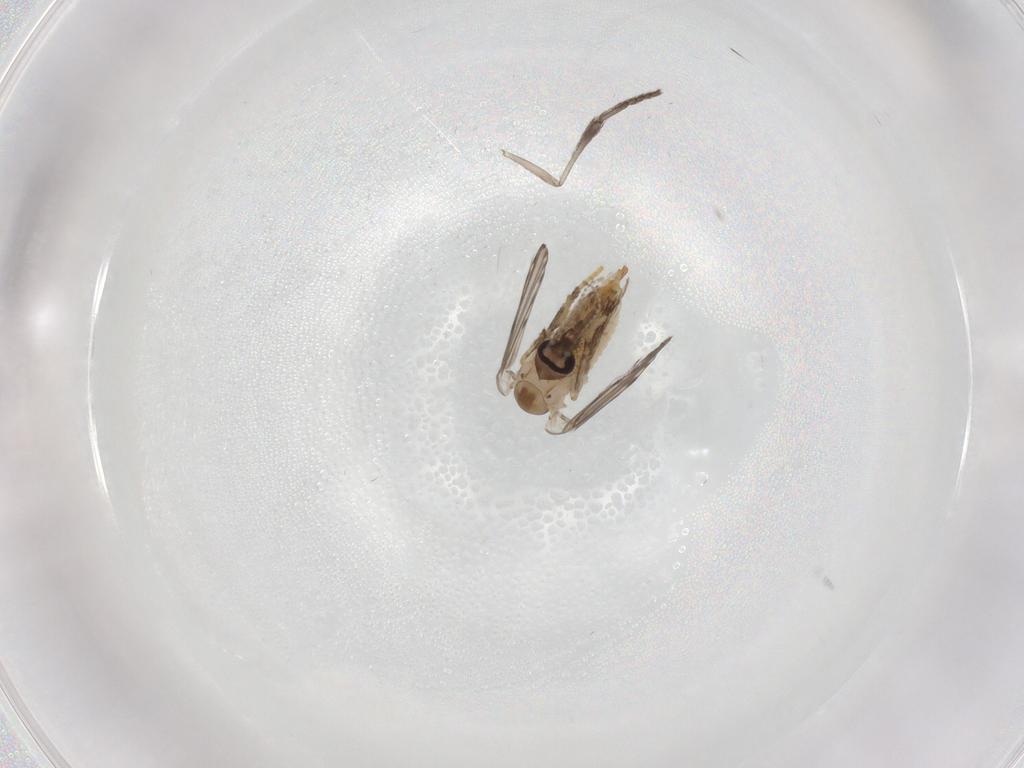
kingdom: Animalia
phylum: Arthropoda
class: Insecta
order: Diptera
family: Psychodidae
